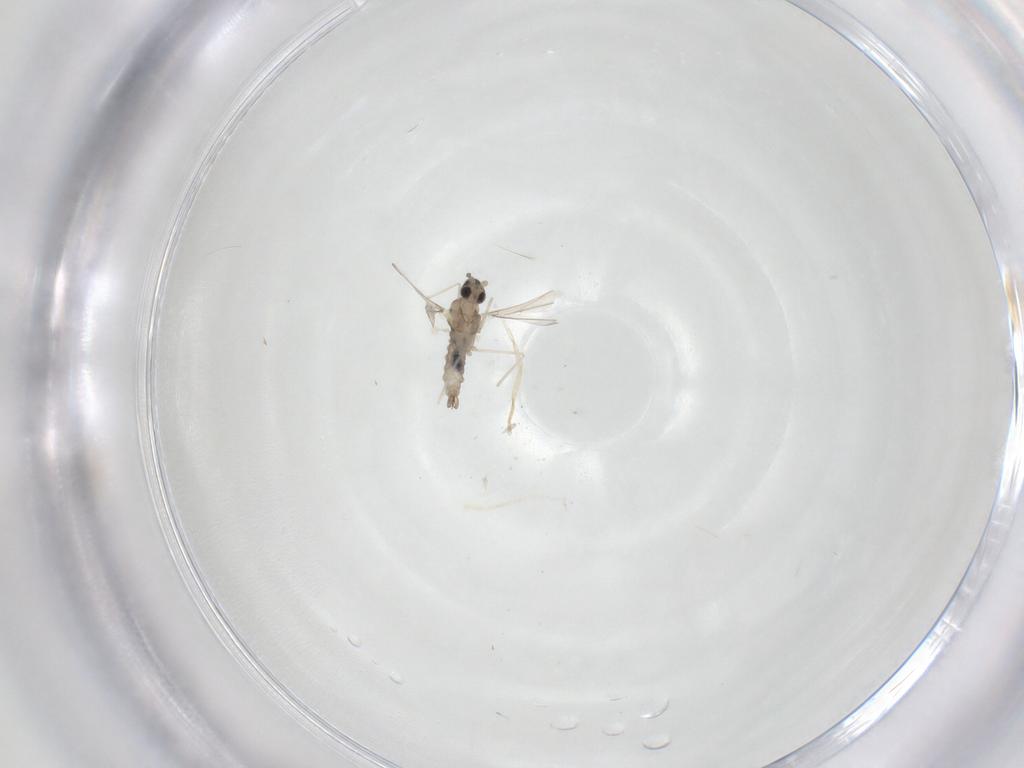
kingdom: Animalia
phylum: Arthropoda
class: Insecta
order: Diptera
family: Cecidomyiidae
